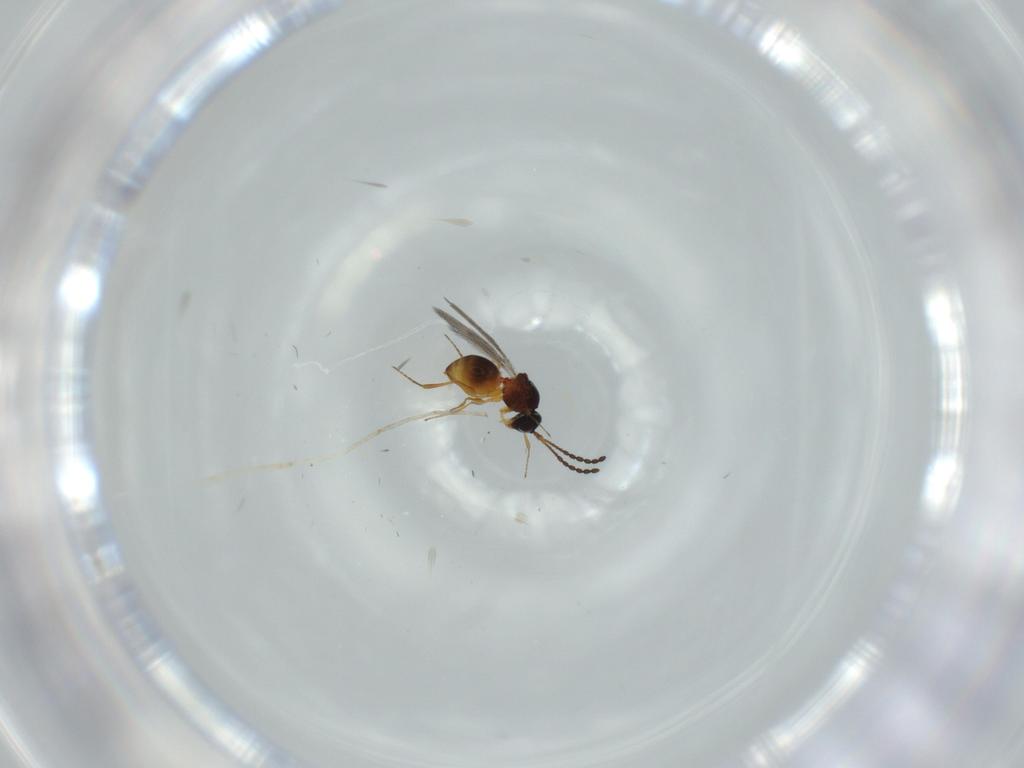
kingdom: Animalia
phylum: Arthropoda
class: Insecta
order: Hymenoptera
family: Figitidae
